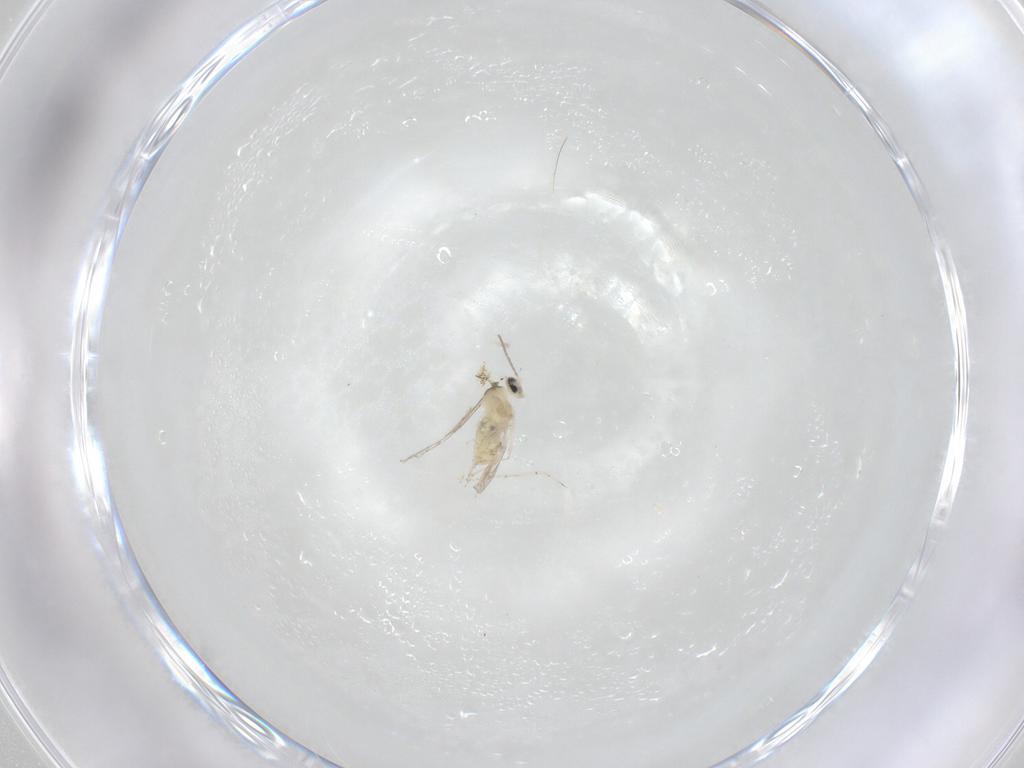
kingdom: Animalia
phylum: Arthropoda
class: Insecta
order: Diptera
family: Cecidomyiidae
